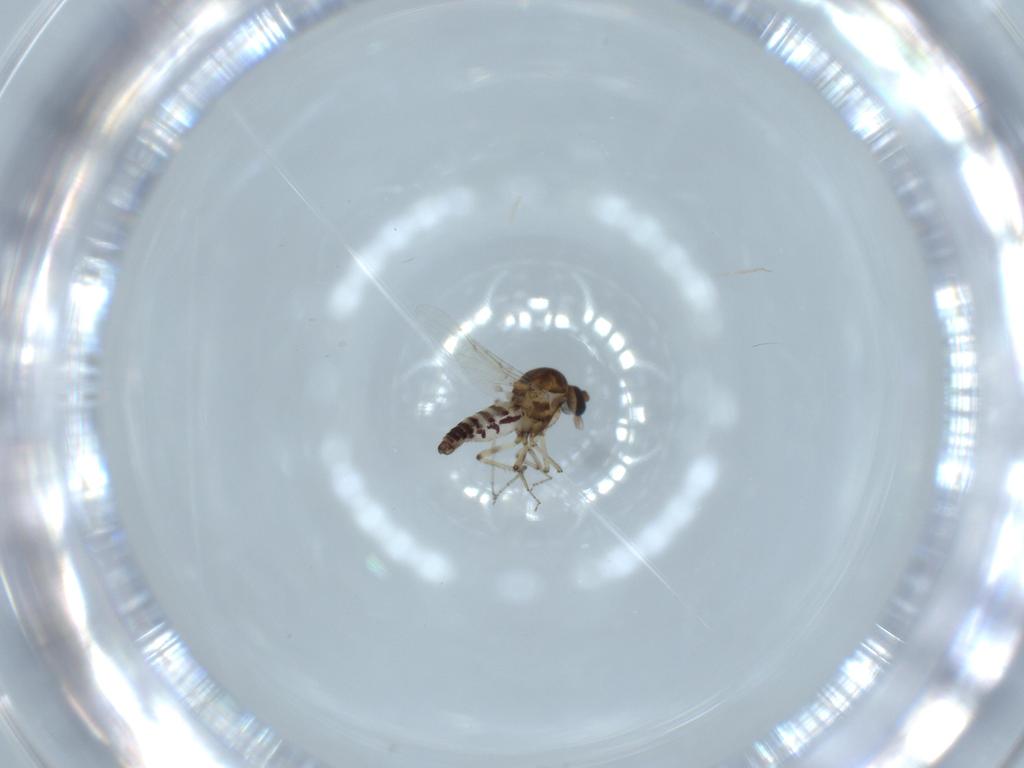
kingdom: Animalia
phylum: Arthropoda
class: Insecta
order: Diptera
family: Ceratopogonidae
